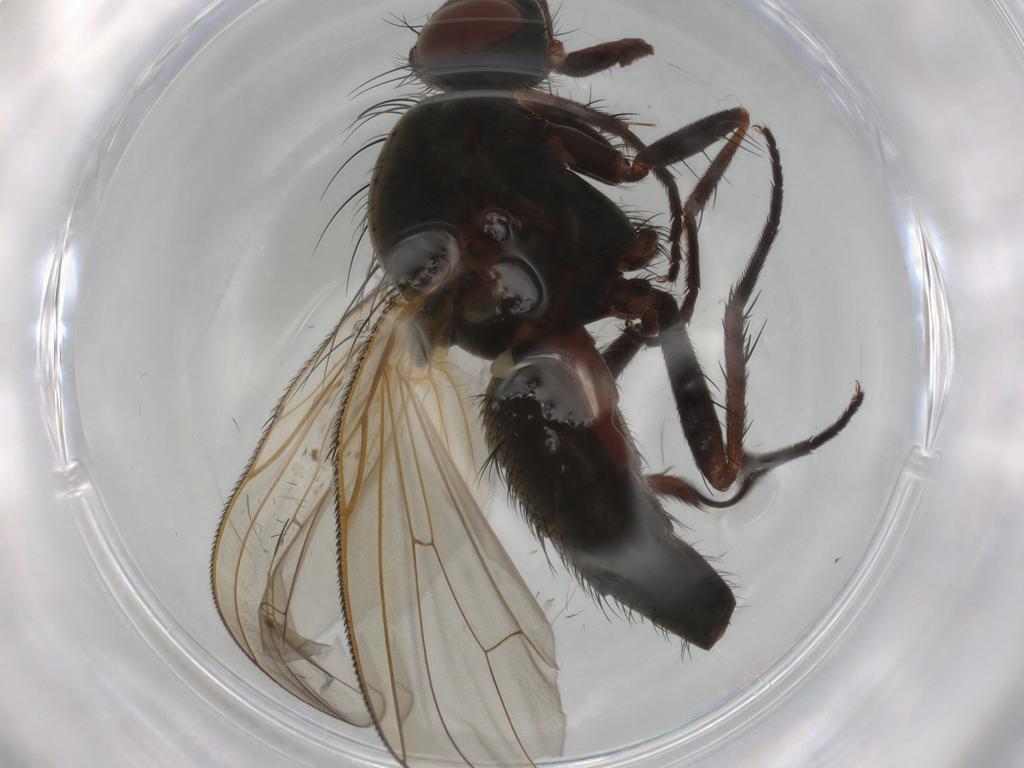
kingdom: Animalia
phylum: Arthropoda
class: Insecta
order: Diptera
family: Anthomyiidae
